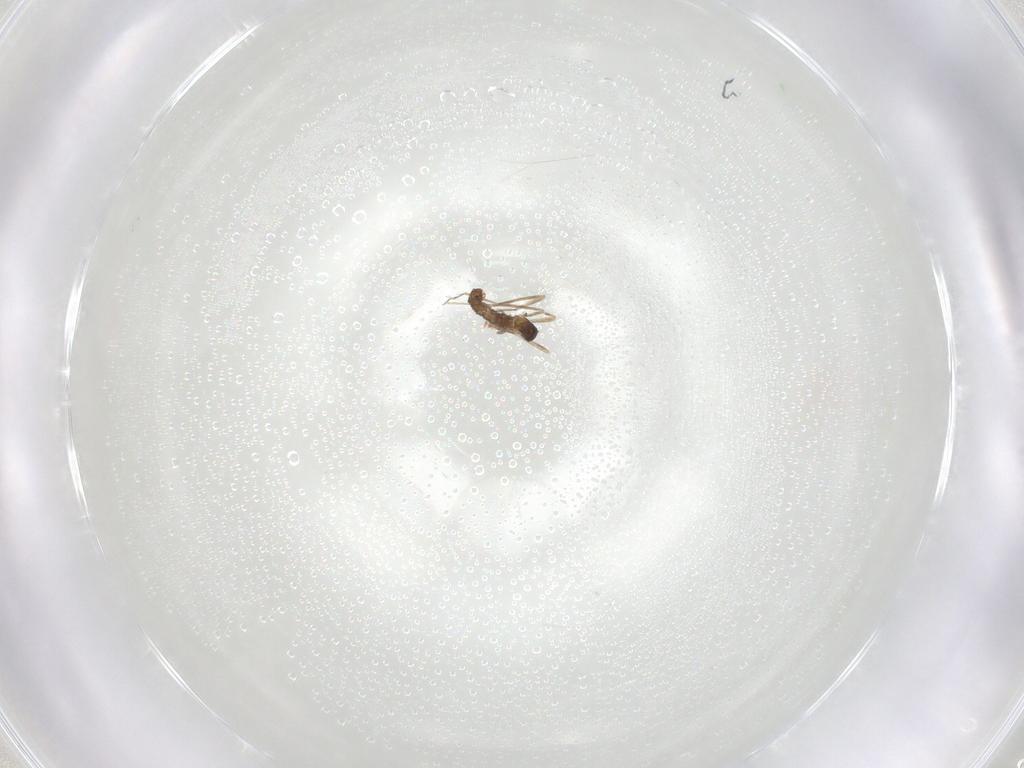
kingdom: Animalia
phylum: Arthropoda
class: Insecta
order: Diptera
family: Cecidomyiidae
